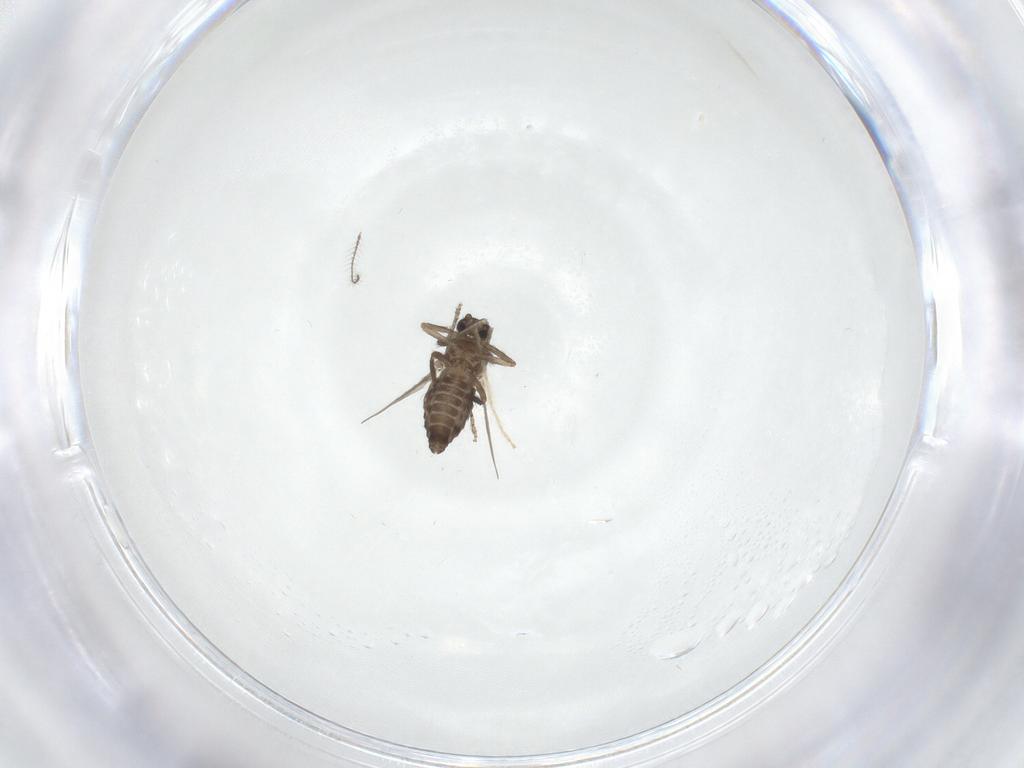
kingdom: Animalia
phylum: Arthropoda
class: Insecta
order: Diptera
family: Ceratopogonidae
